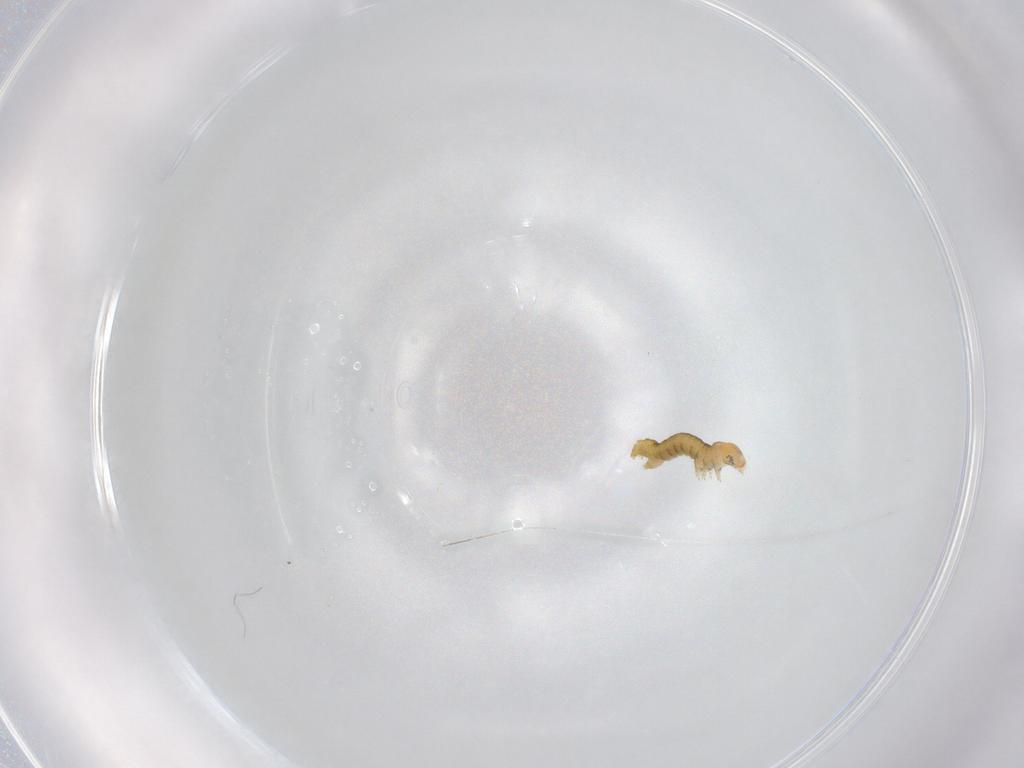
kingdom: Animalia
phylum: Arthropoda
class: Insecta
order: Lepidoptera
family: Geometridae
